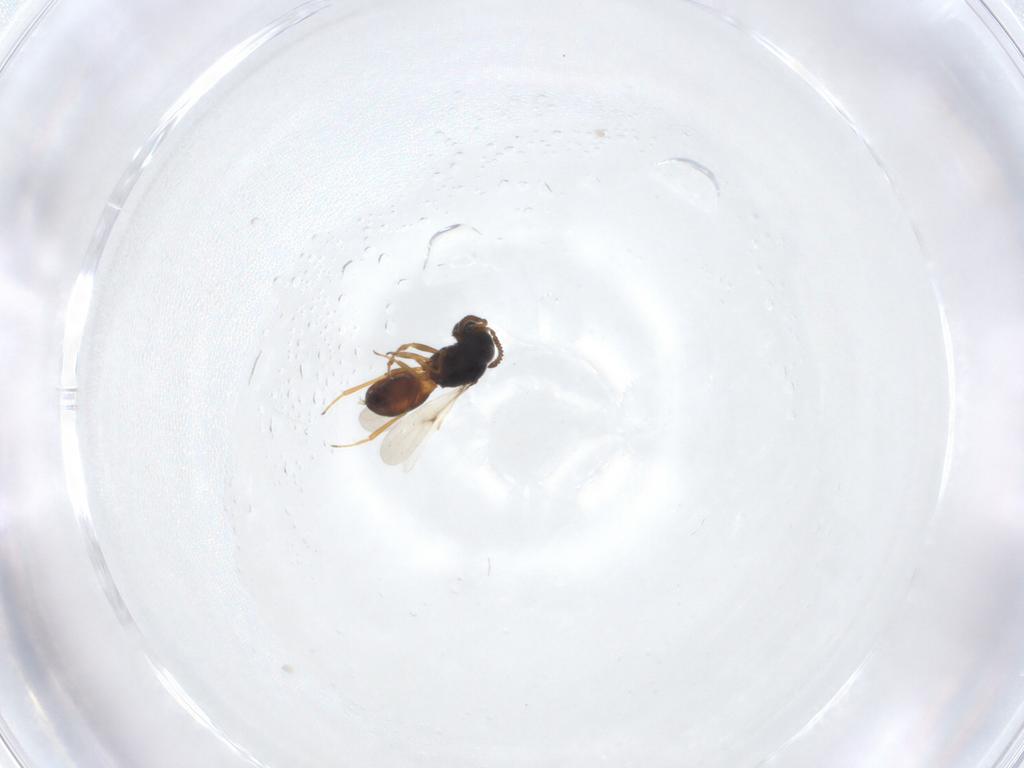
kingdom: Animalia
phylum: Arthropoda
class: Insecta
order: Hymenoptera
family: Scelionidae
